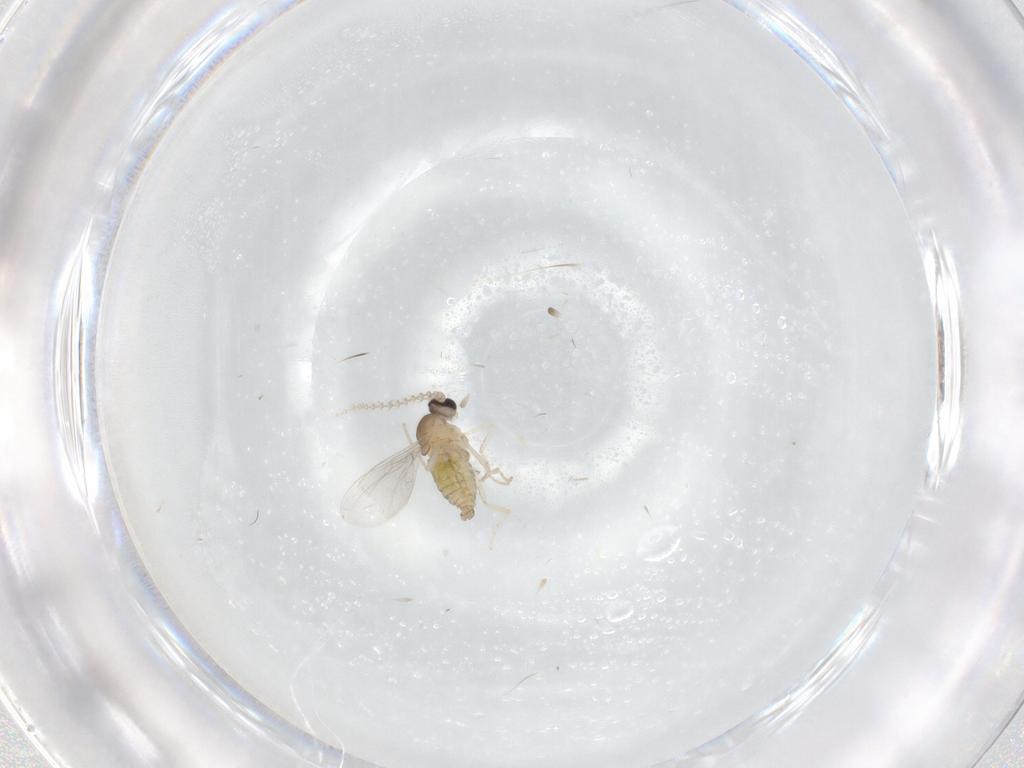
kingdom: Animalia
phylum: Arthropoda
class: Insecta
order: Diptera
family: Cecidomyiidae
